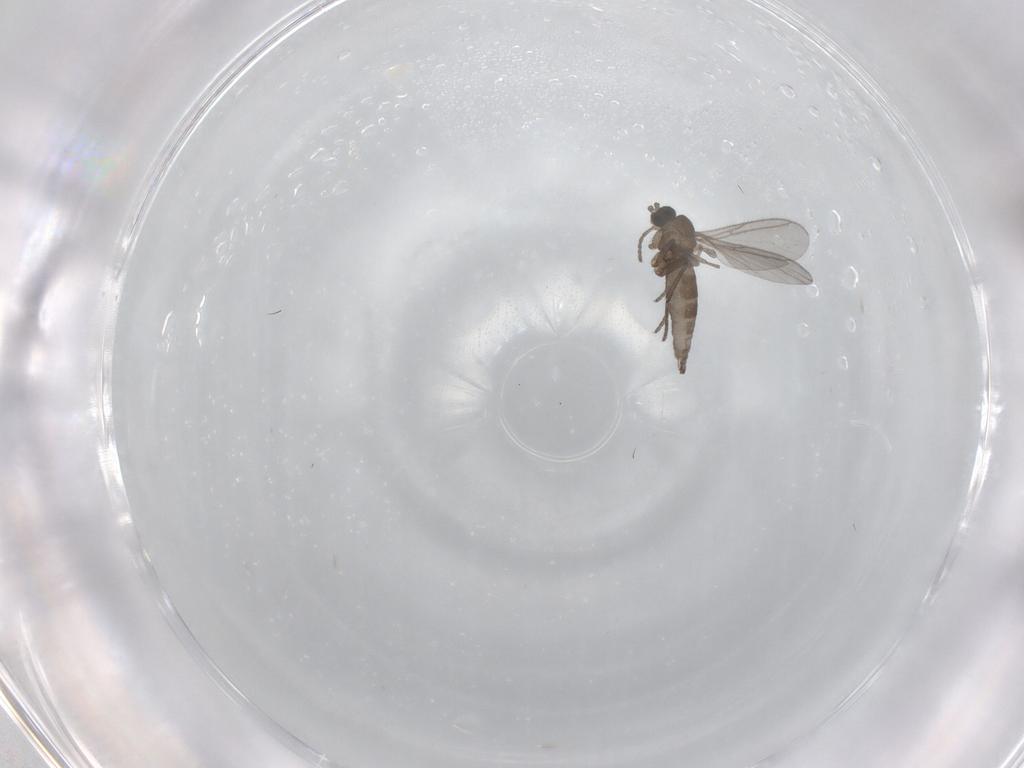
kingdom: Animalia
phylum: Arthropoda
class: Insecta
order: Diptera
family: Sciaridae
